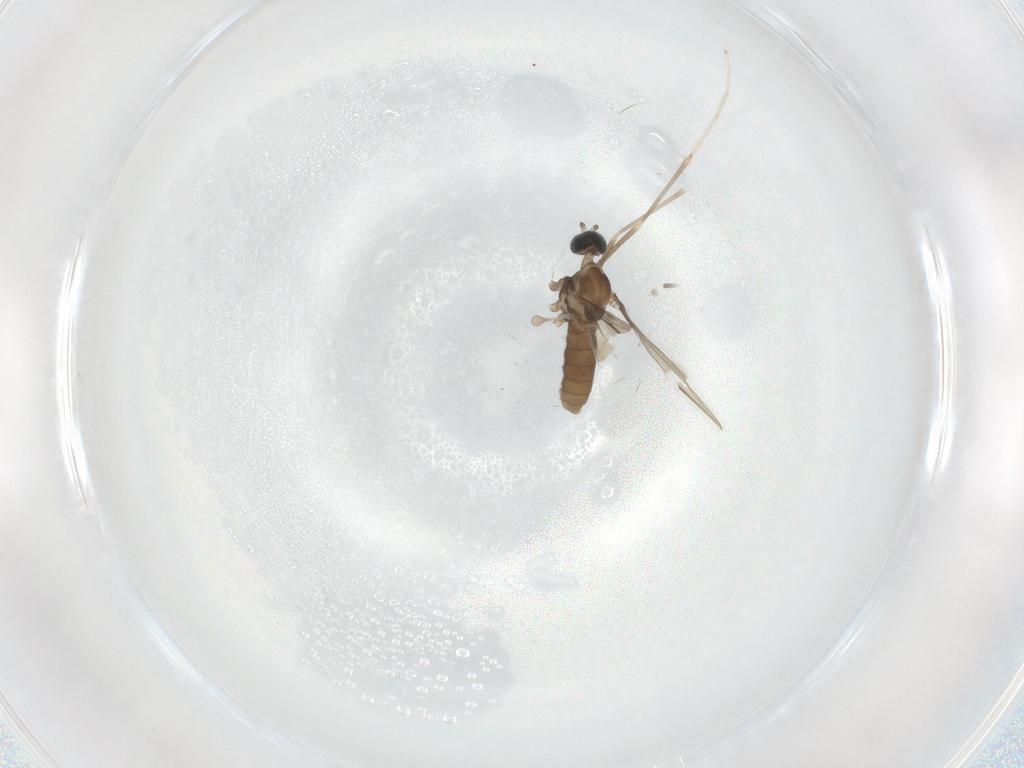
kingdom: Animalia
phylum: Arthropoda
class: Insecta
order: Diptera
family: Cecidomyiidae
